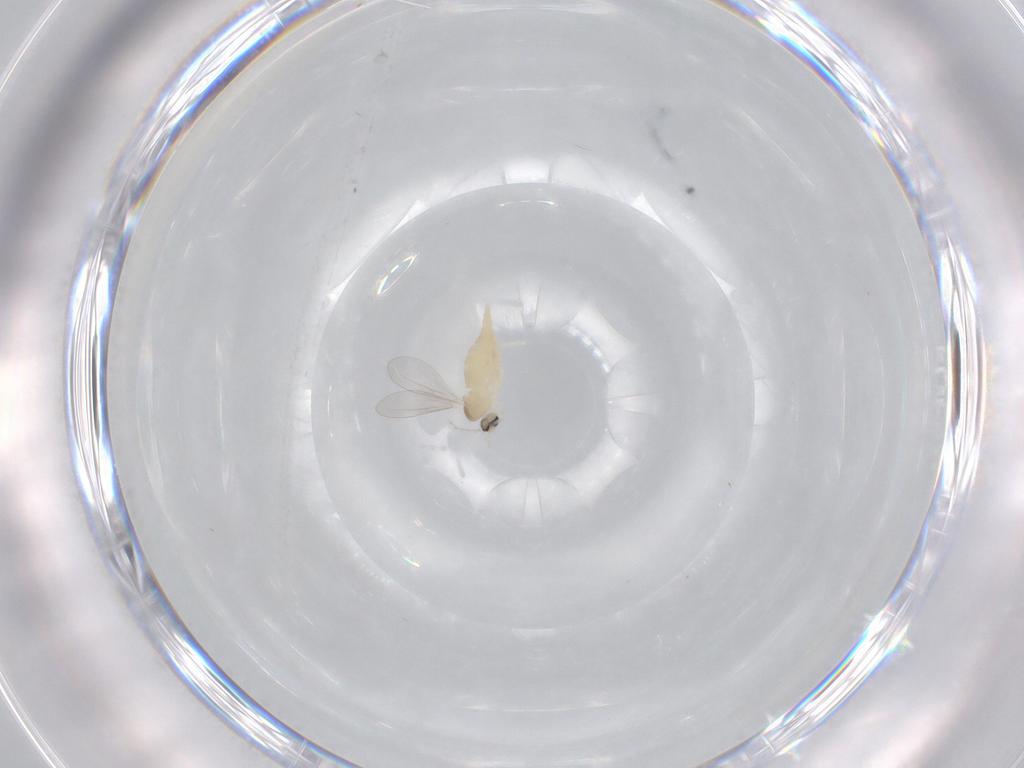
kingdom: Animalia
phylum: Arthropoda
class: Insecta
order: Diptera
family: Cecidomyiidae
